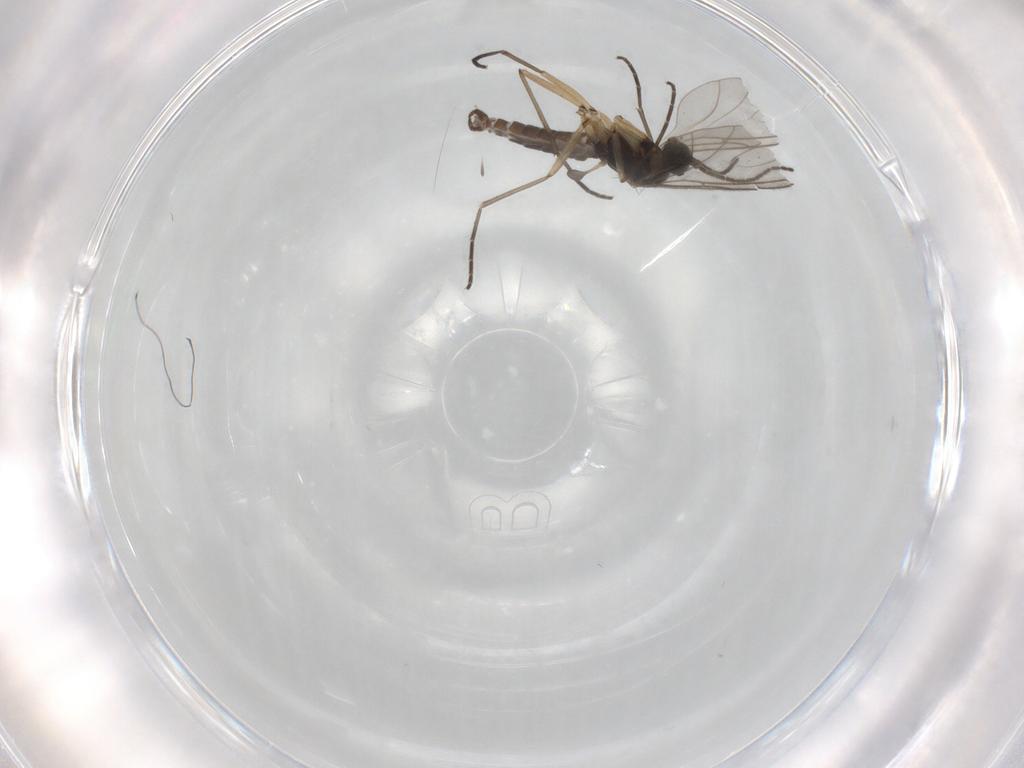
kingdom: Animalia
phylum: Arthropoda
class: Insecta
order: Diptera
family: Sciaridae
